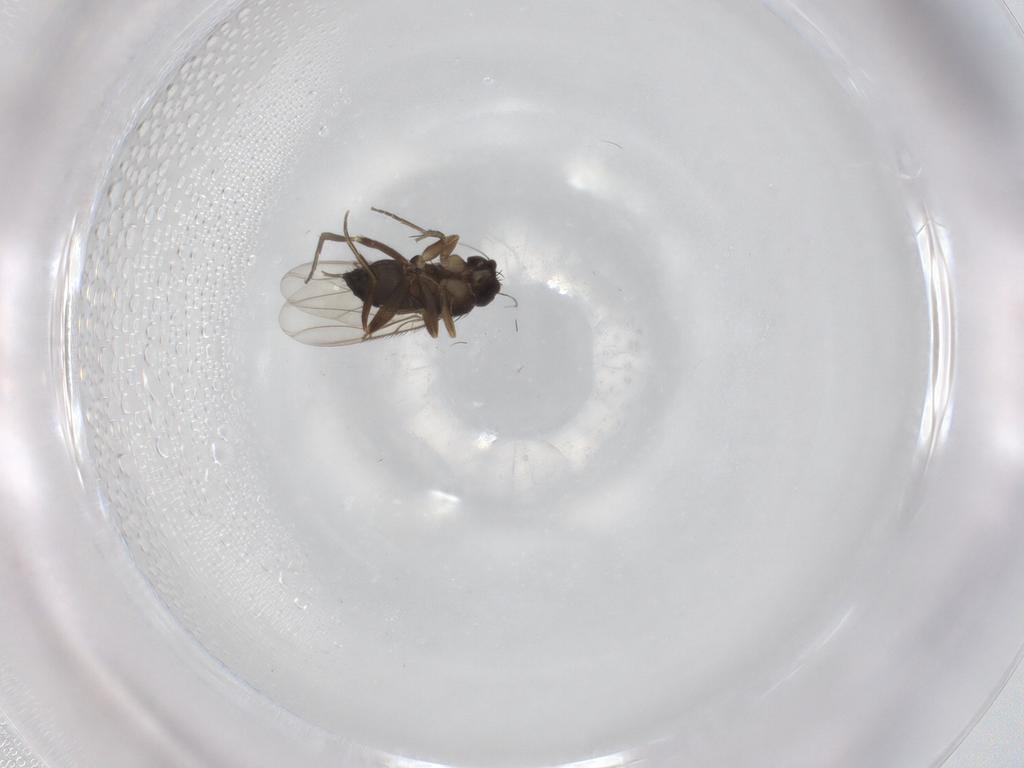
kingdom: Animalia
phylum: Arthropoda
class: Insecta
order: Diptera
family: Phoridae
